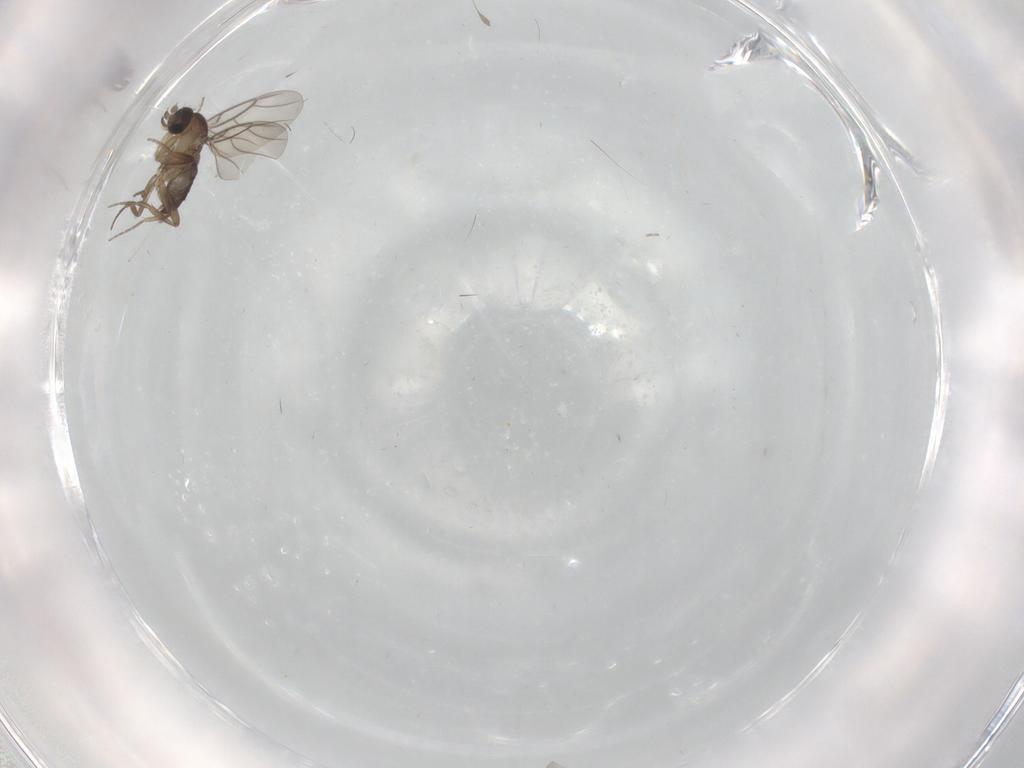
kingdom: Animalia
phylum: Arthropoda
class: Insecta
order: Diptera
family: Phoridae
